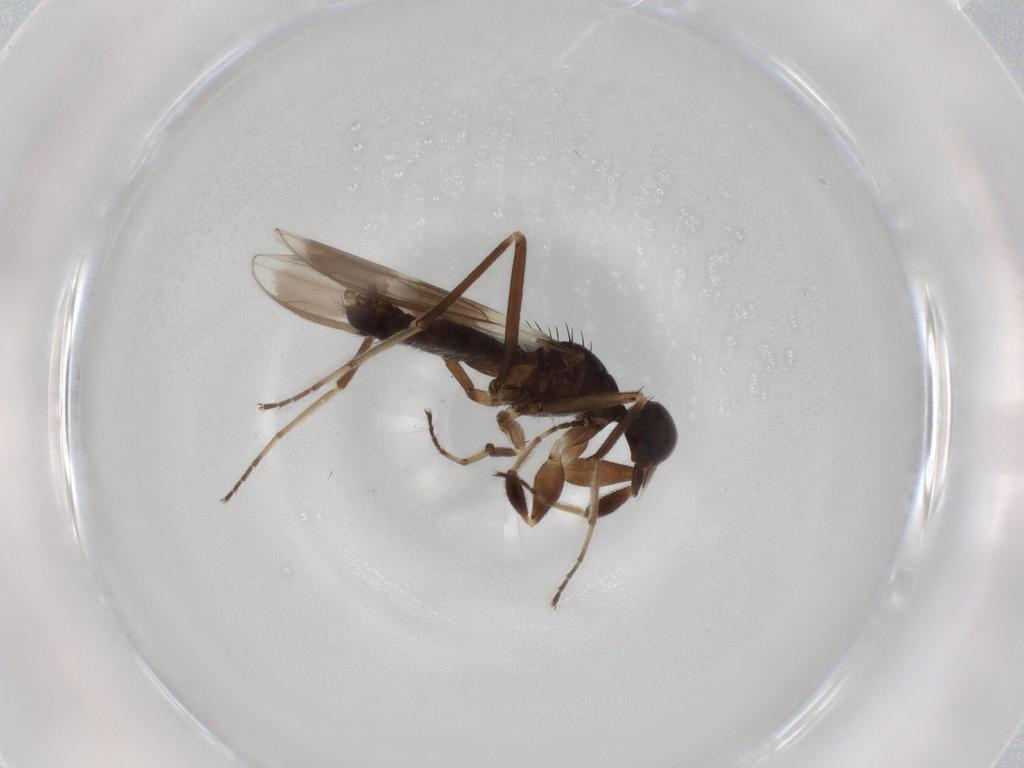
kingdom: Animalia
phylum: Arthropoda
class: Insecta
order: Diptera
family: Hybotidae
